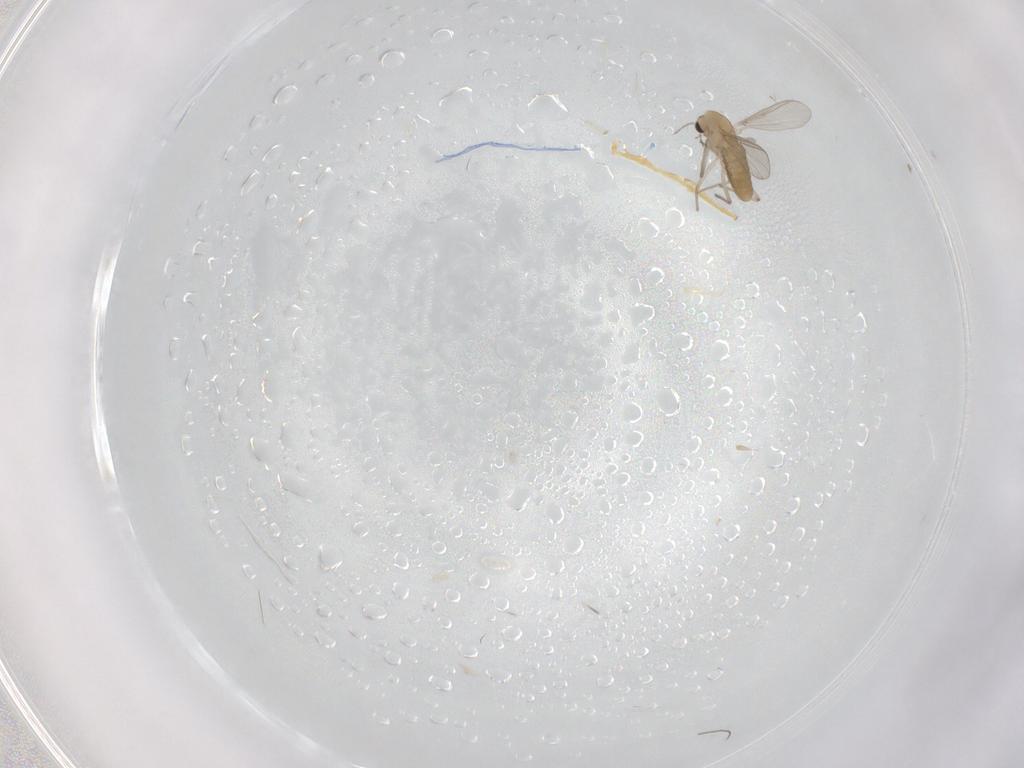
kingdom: Animalia
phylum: Arthropoda
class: Insecta
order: Diptera
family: Chironomidae
